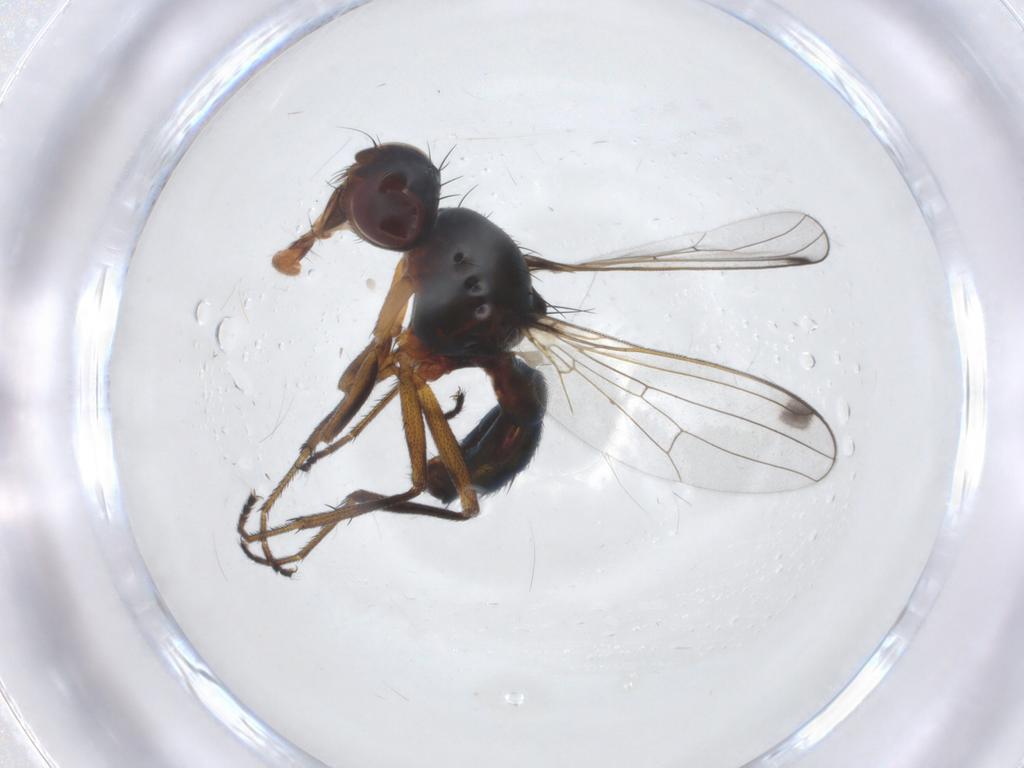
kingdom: Animalia
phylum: Arthropoda
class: Insecta
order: Diptera
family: Sepsidae
